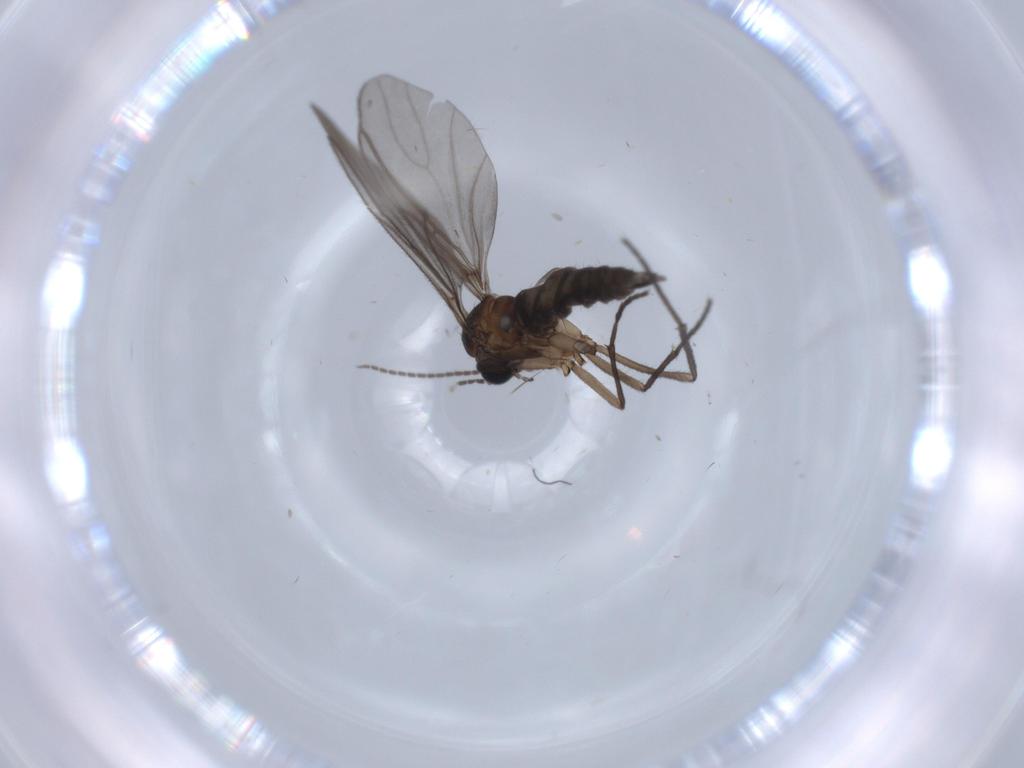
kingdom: Animalia
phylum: Arthropoda
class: Insecta
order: Diptera
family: Sciaridae
